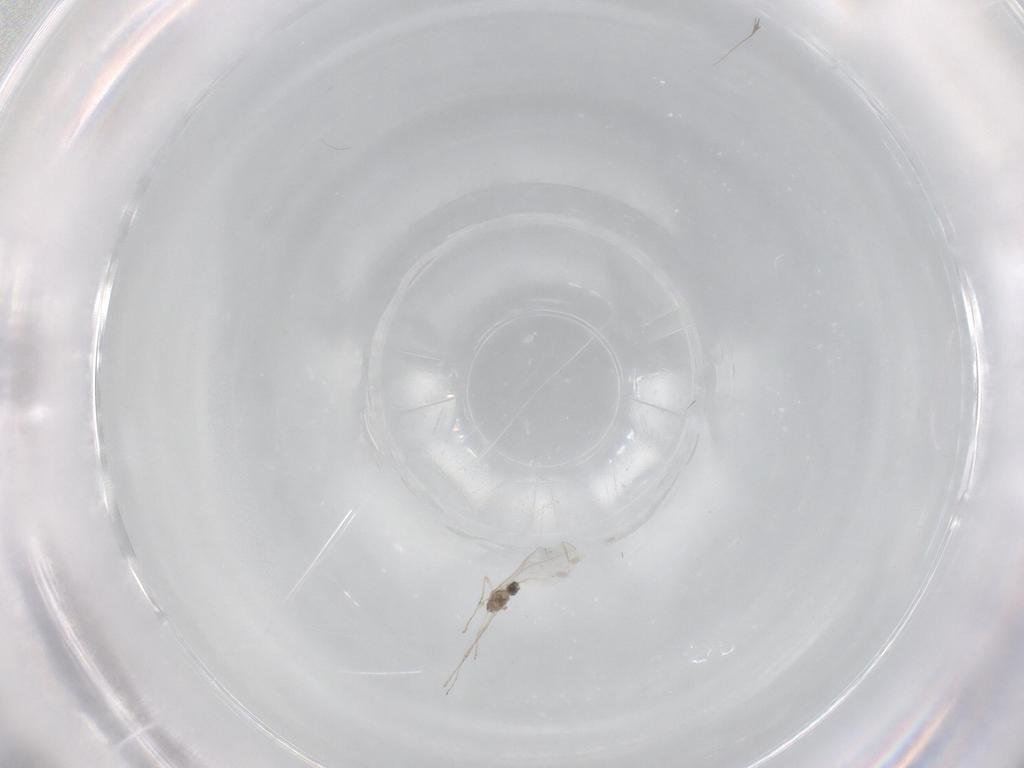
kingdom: Animalia
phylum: Arthropoda
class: Insecta
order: Diptera
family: Cecidomyiidae
